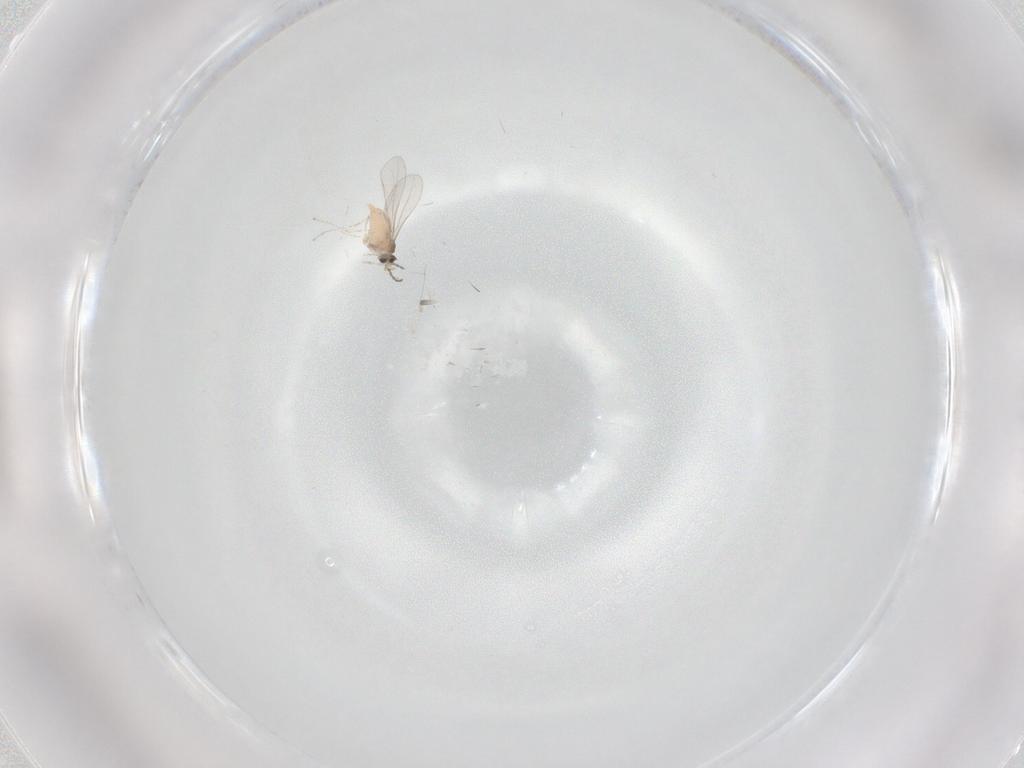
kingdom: Animalia
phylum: Arthropoda
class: Insecta
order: Diptera
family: Cecidomyiidae
